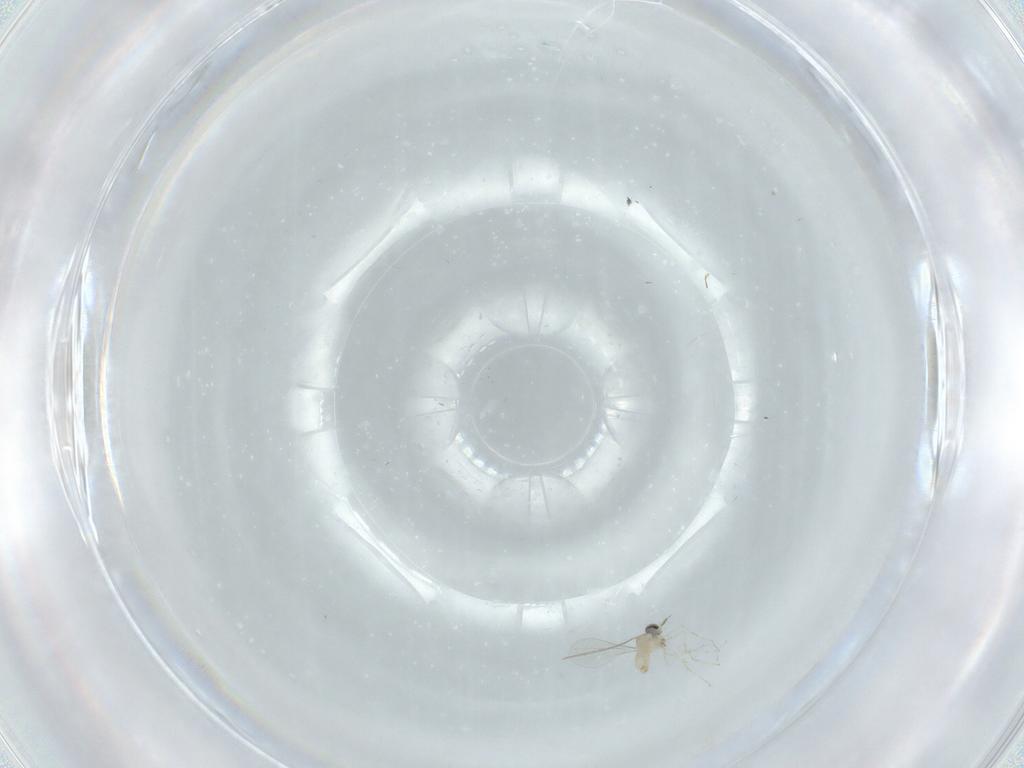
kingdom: Animalia
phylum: Arthropoda
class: Insecta
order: Diptera
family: Cecidomyiidae
